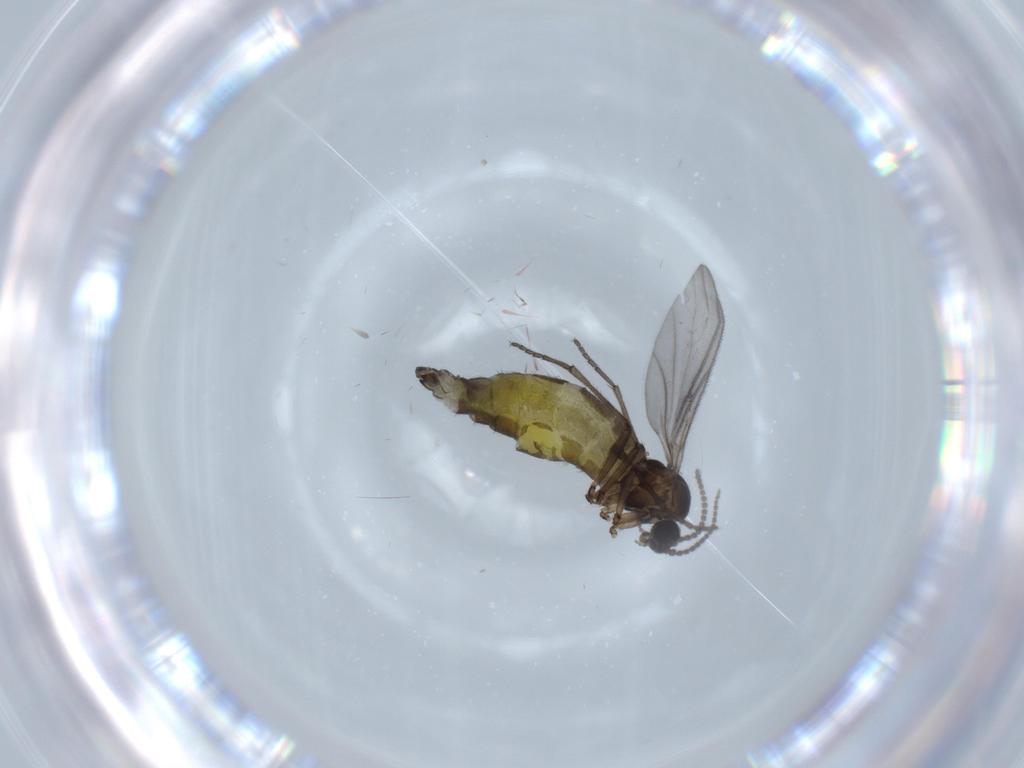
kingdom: Animalia
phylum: Arthropoda
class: Insecta
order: Diptera
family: Sciaridae
